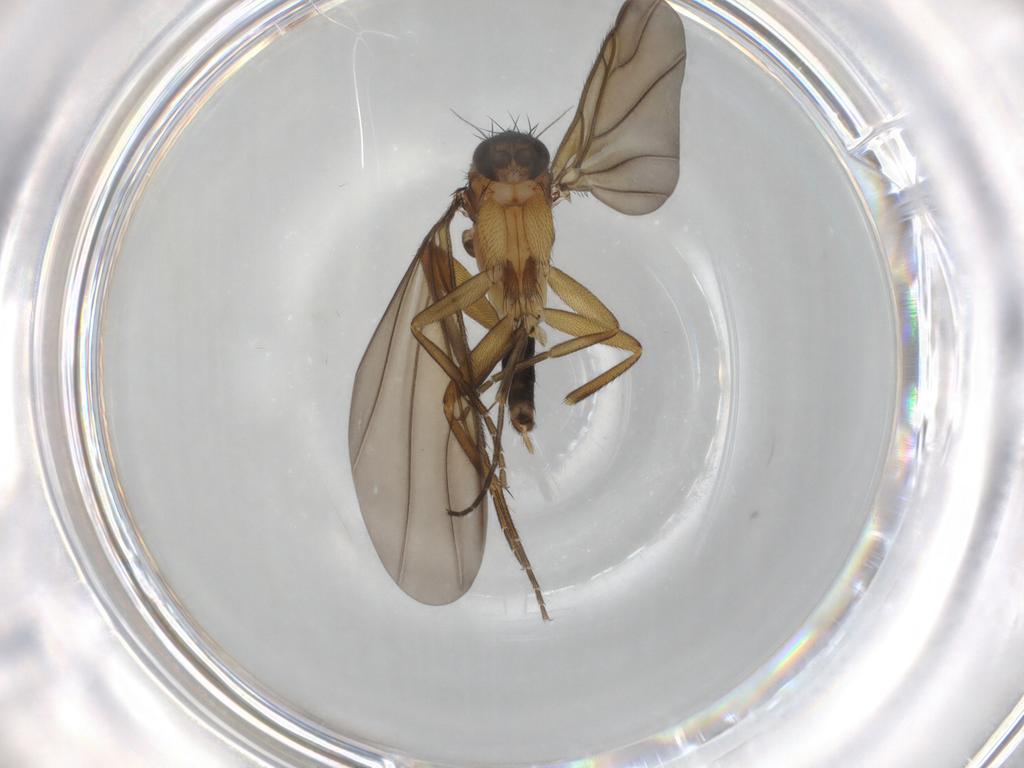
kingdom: Animalia
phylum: Arthropoda
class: Insecta
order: Diptera
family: Phoridae
